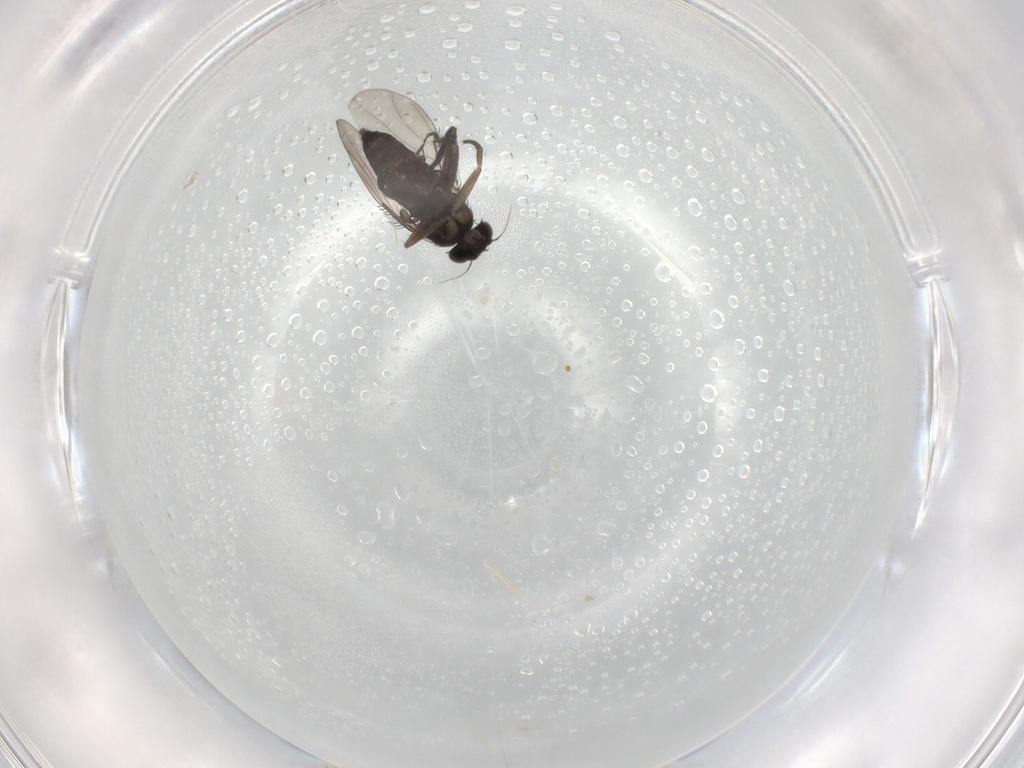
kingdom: Animalia
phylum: Arthropoda
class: Insecta
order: Diptera
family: Phoridae
